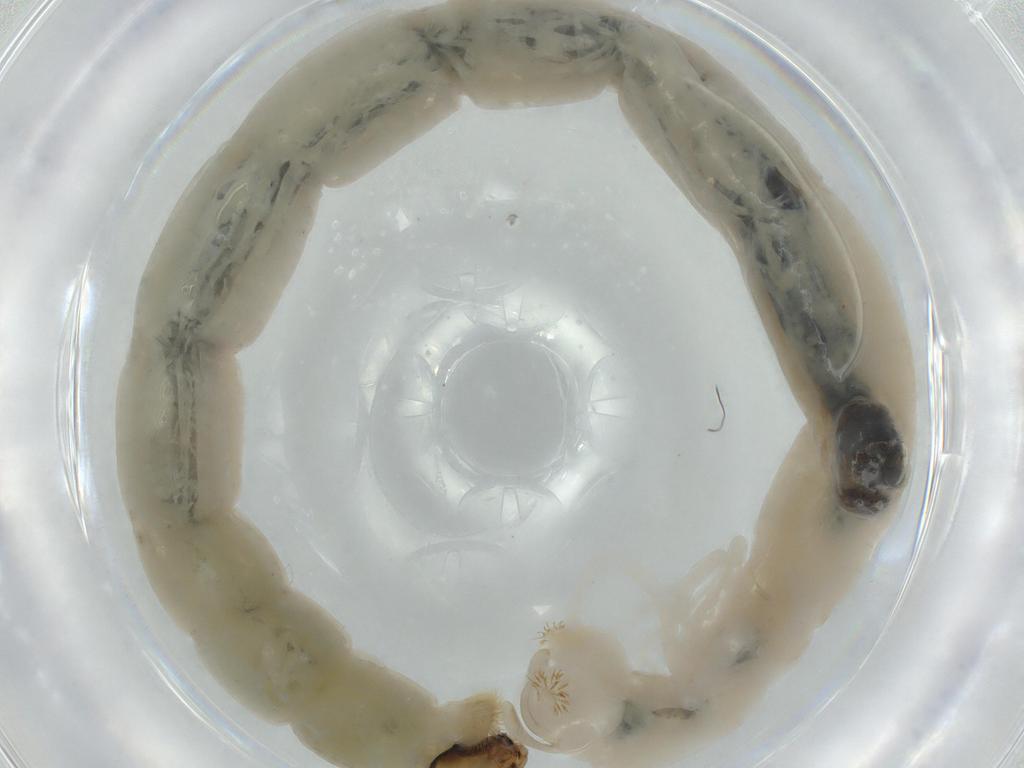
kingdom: Animalia
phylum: Arthropoda
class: Insecta
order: Diptera
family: Chironomidae
